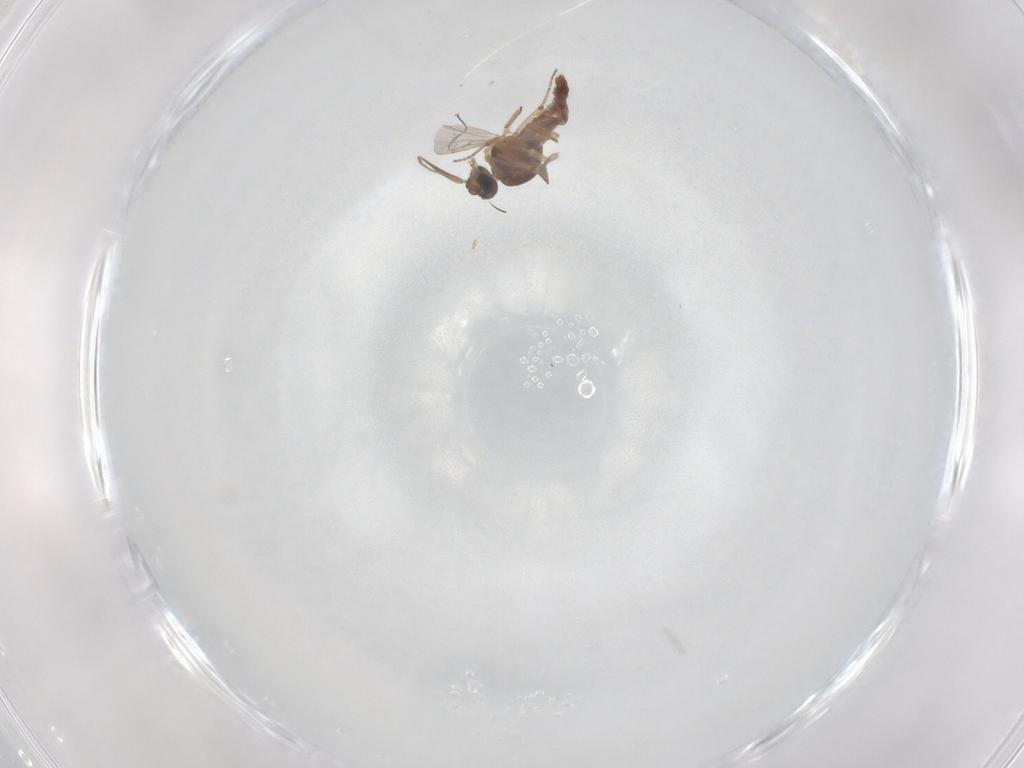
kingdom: Animalia
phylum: Arthropoda
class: Insecta
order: Diptera
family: Ceratopogonidae
